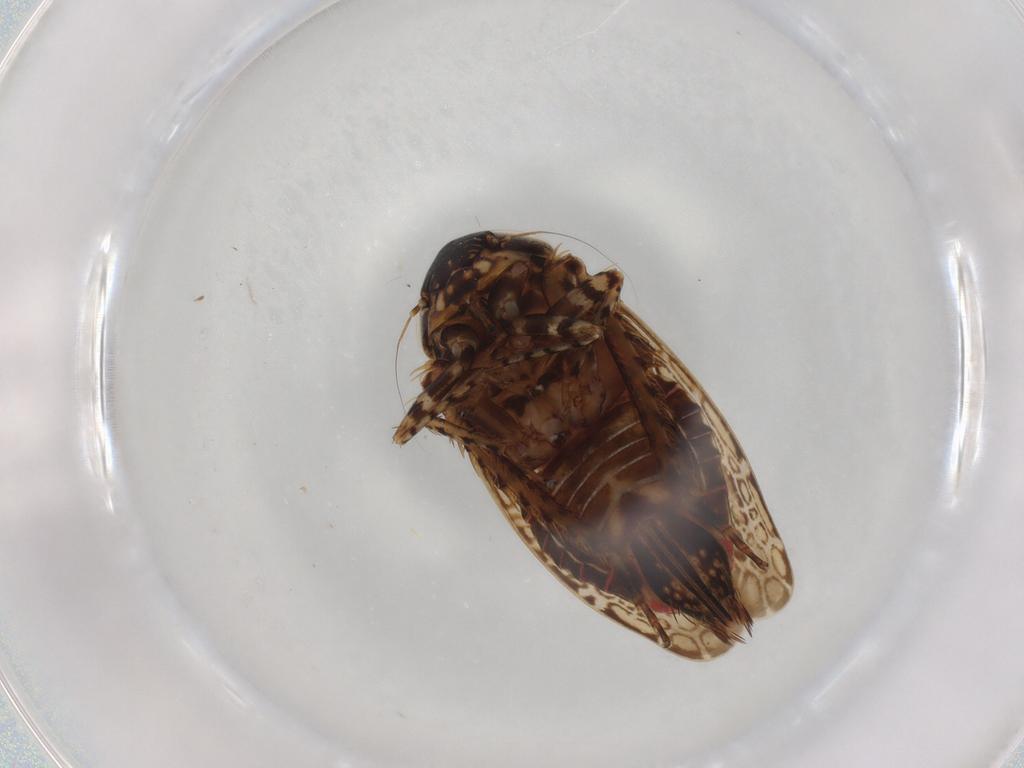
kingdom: Animalia
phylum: Arthropoda
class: Insecta
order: Hemiptera
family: Cicadellidae
